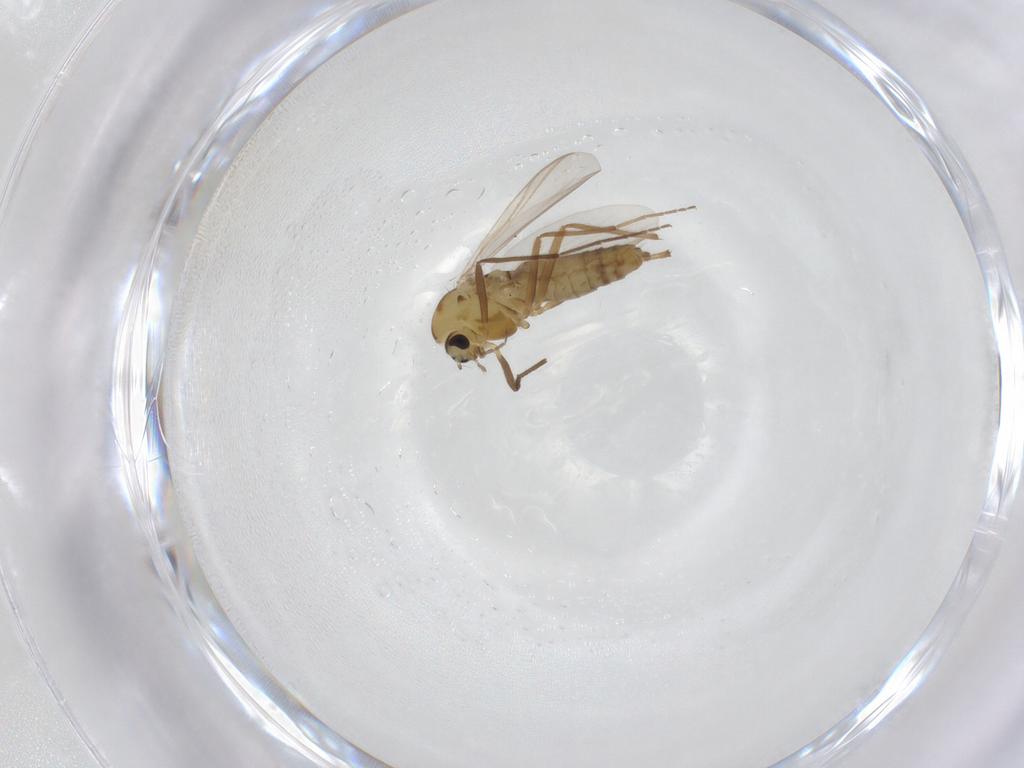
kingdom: Animalia
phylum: Arthropoda
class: Insecta
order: Diptera
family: Chironomidae
